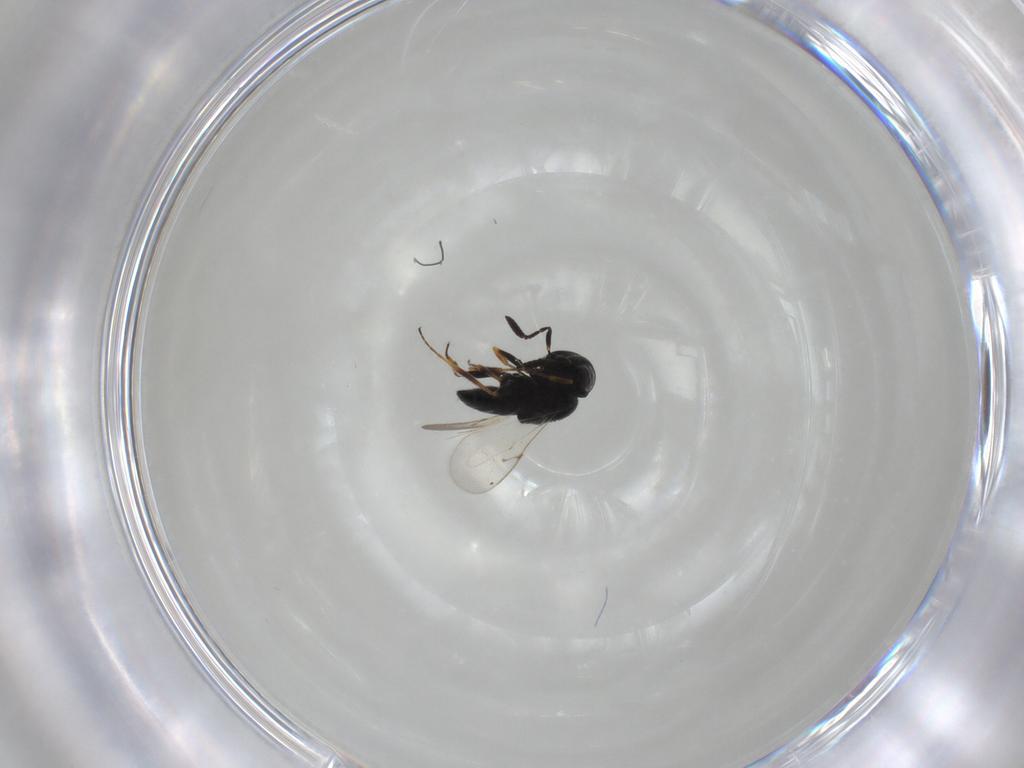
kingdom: Animalia
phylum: Arthropoda
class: Insecta
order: Hymenoptera
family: Scelionidae
